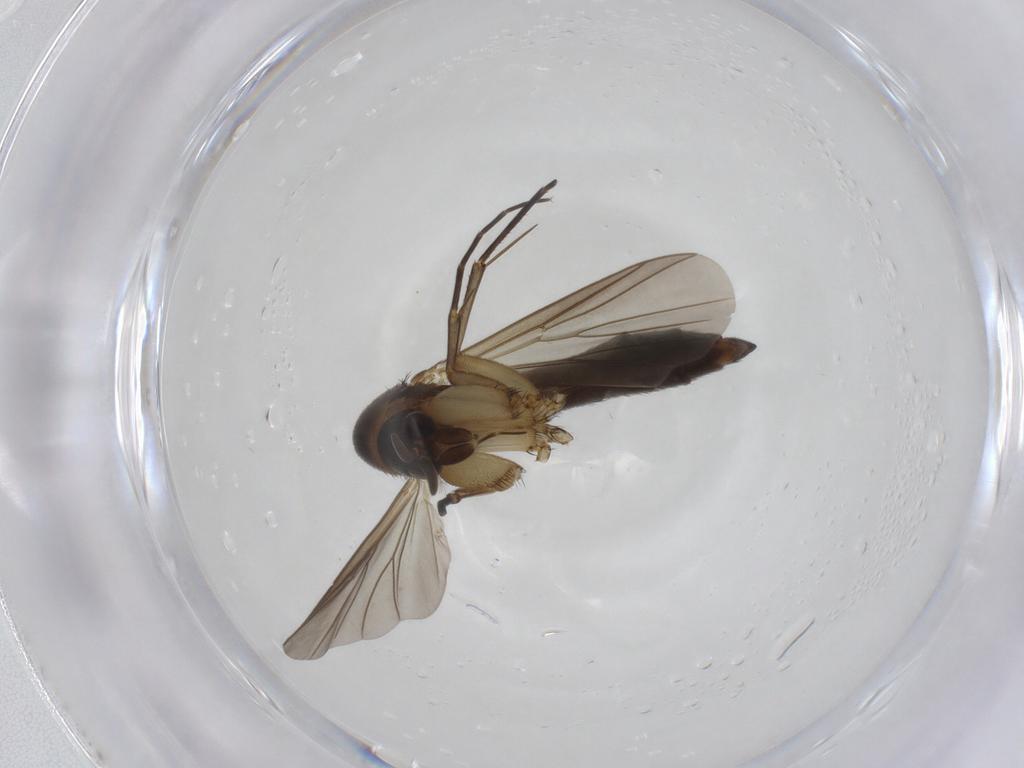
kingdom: Animalia
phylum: Arthropoda
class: Insecta
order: Diptera
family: Mycetophilidae
